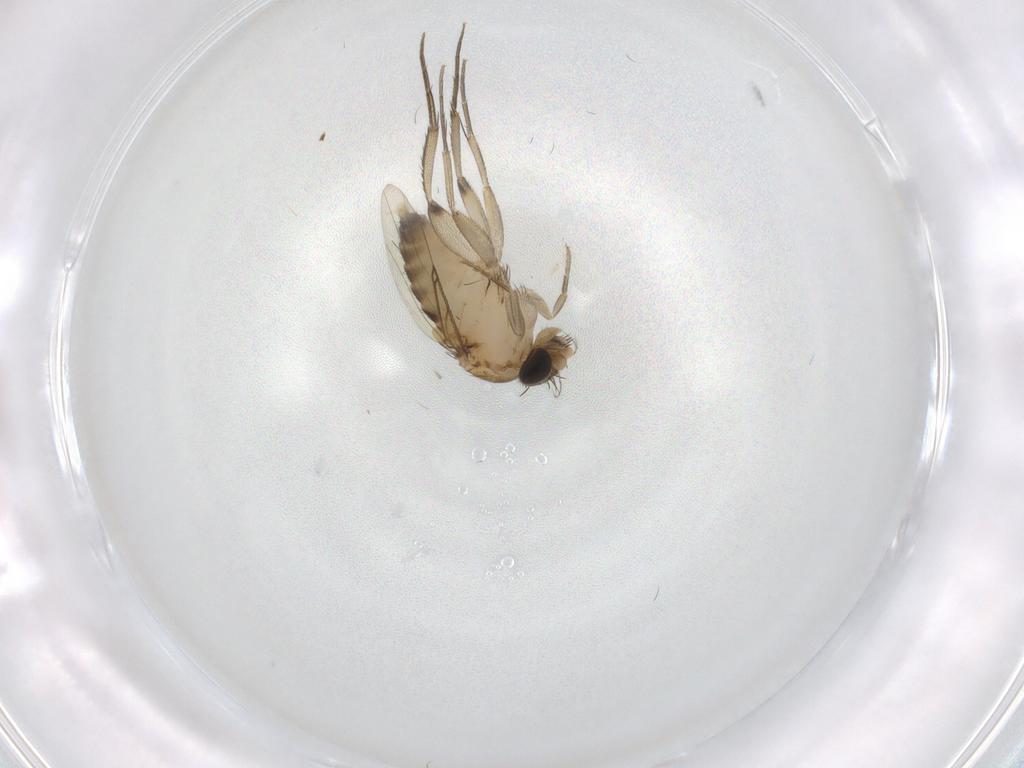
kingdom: Animalia
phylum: Arthropoda
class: Insecta
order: Diptera
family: Phoridae
